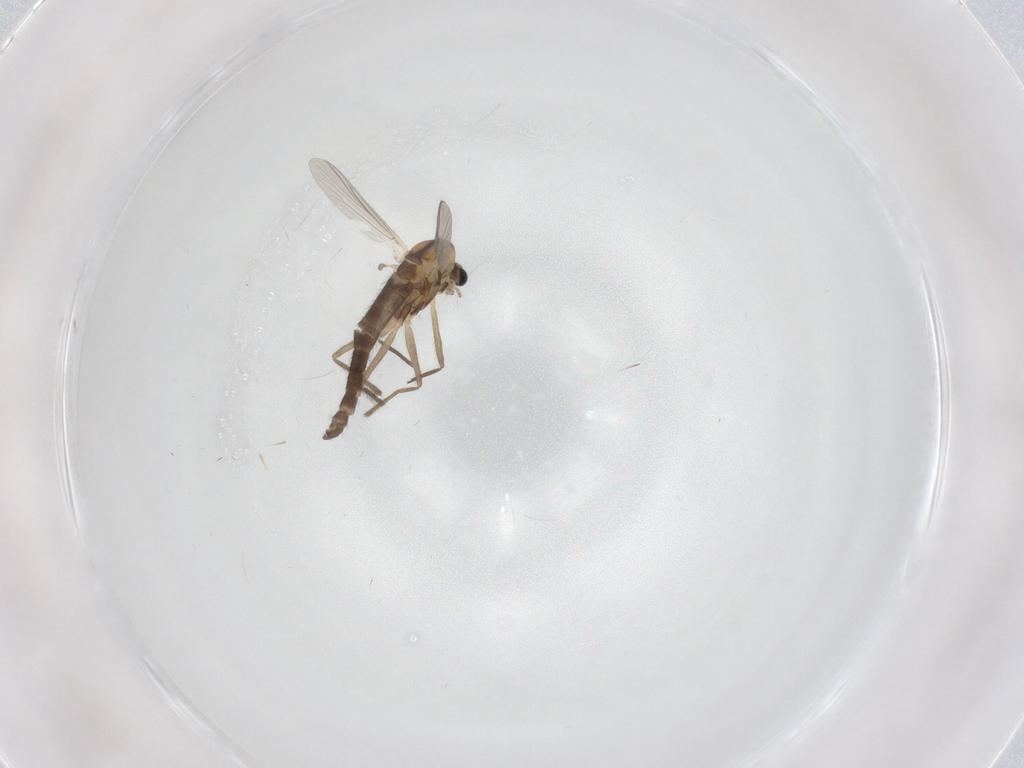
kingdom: Animalia
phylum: Arthropoda
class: Insecta
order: Diptera
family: Chironomidae
